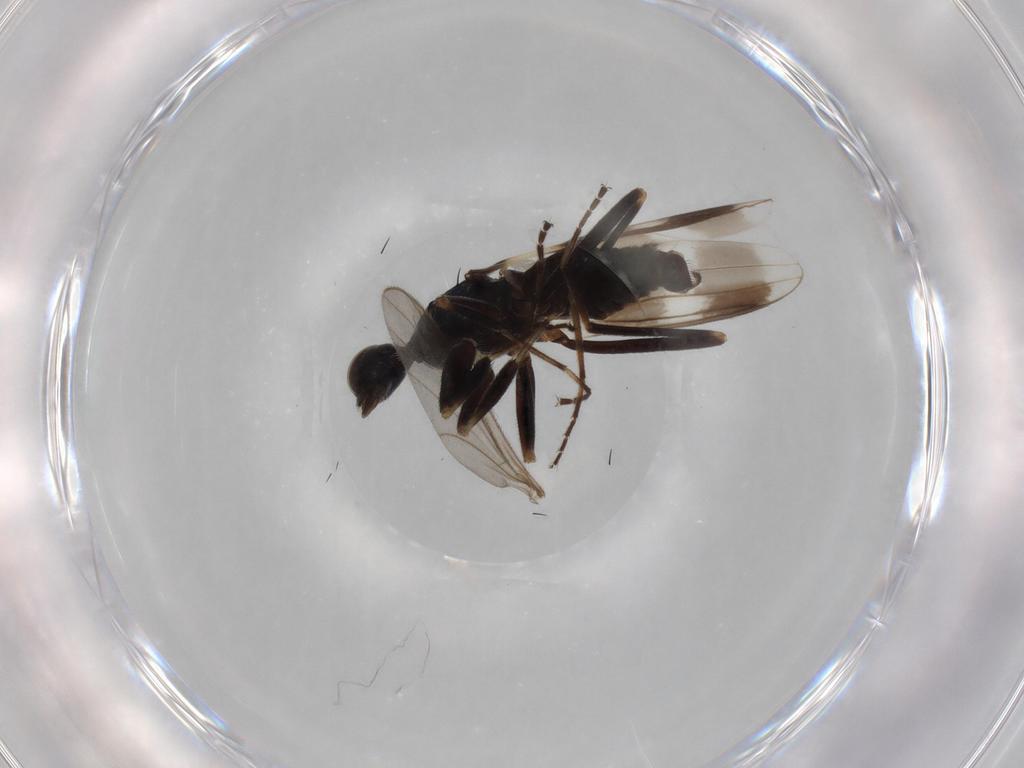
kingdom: Animalia
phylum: Arthropoda
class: Insecta
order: Diptera
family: Hybotidae
